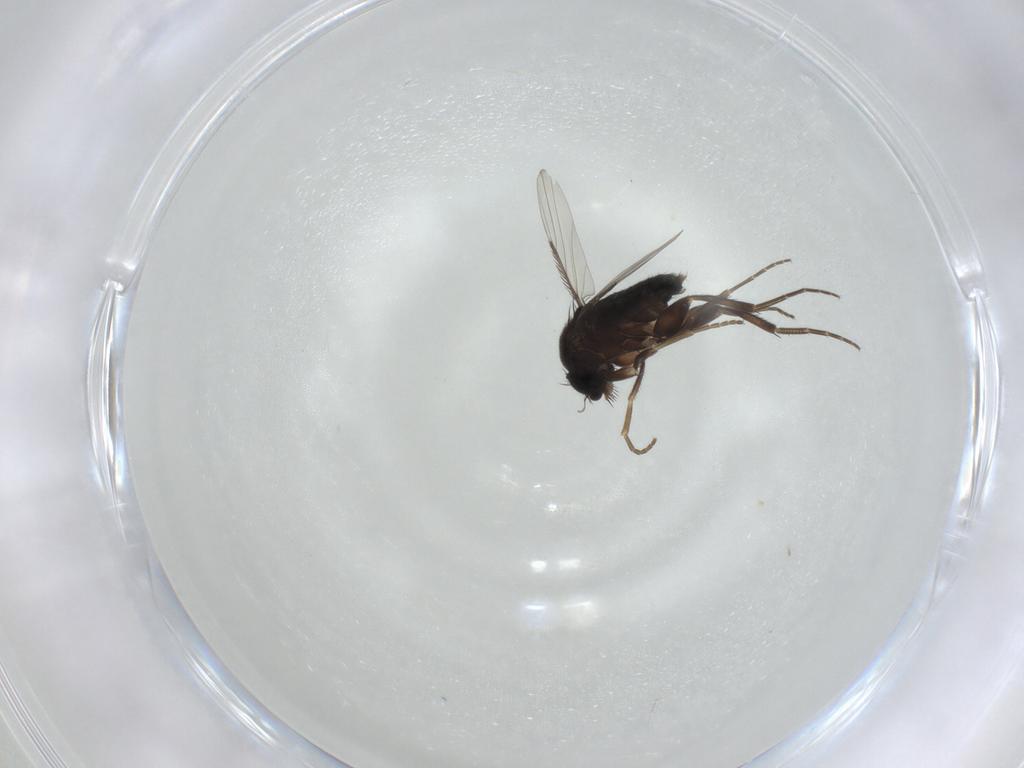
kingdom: Animalia
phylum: Arthropoda
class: Insecta
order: Diptera
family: Phoridae
